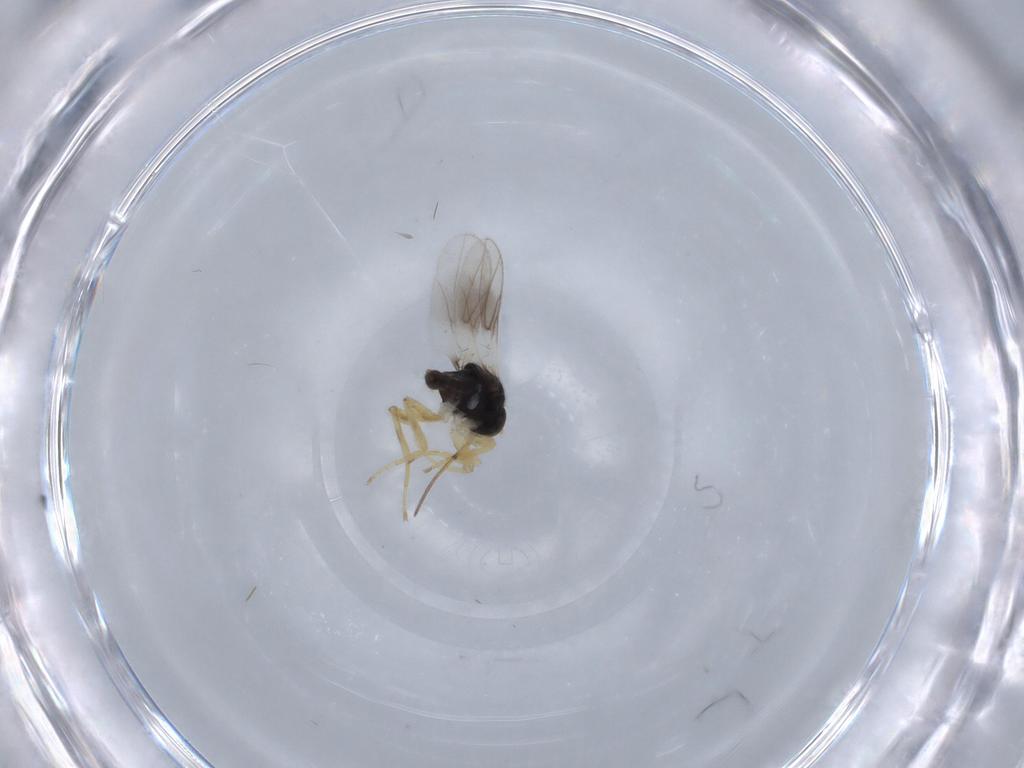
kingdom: Animalia
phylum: Arthropoda
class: Insecta
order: Diptera
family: Hybotidae
